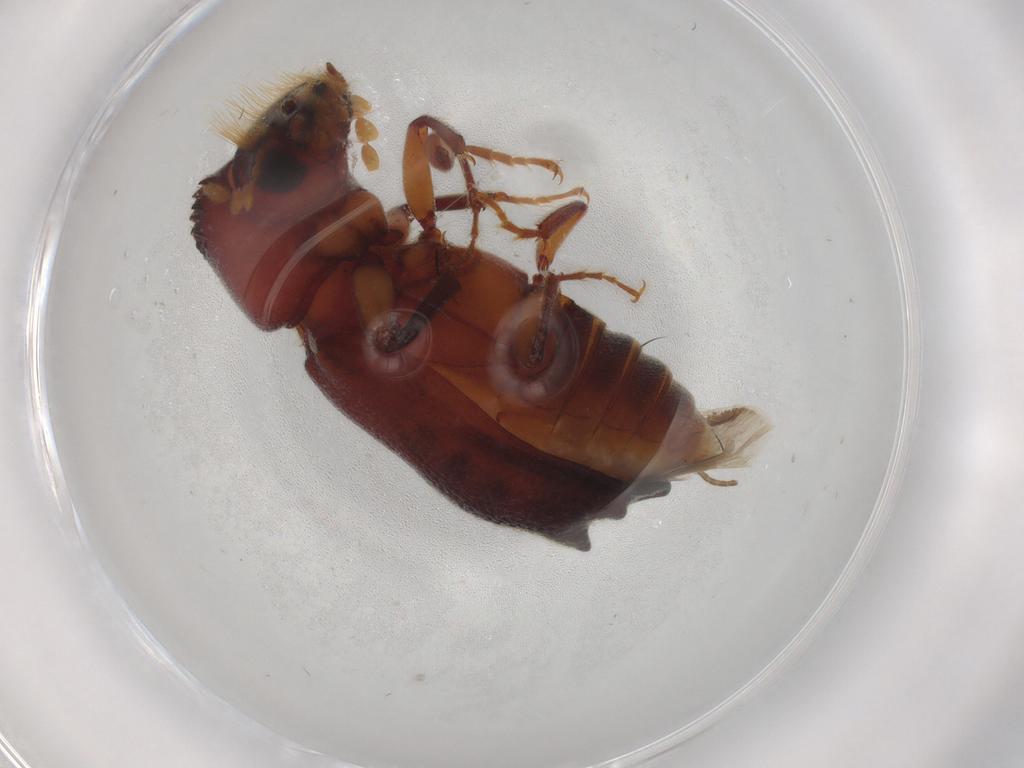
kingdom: Animalia
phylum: Arthropoda
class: Insecta
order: Coleoptera
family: Bostrichidae
